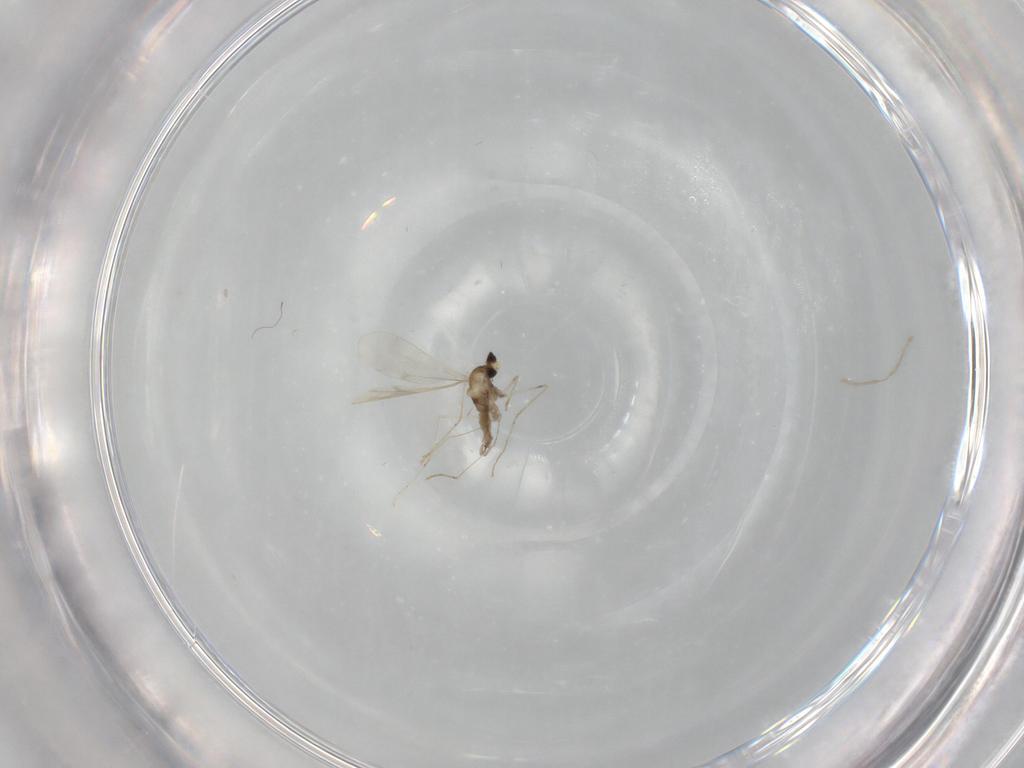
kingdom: Animalia
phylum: Arthropoda
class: Insecta
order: Diptera
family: Cecidomyiidae
